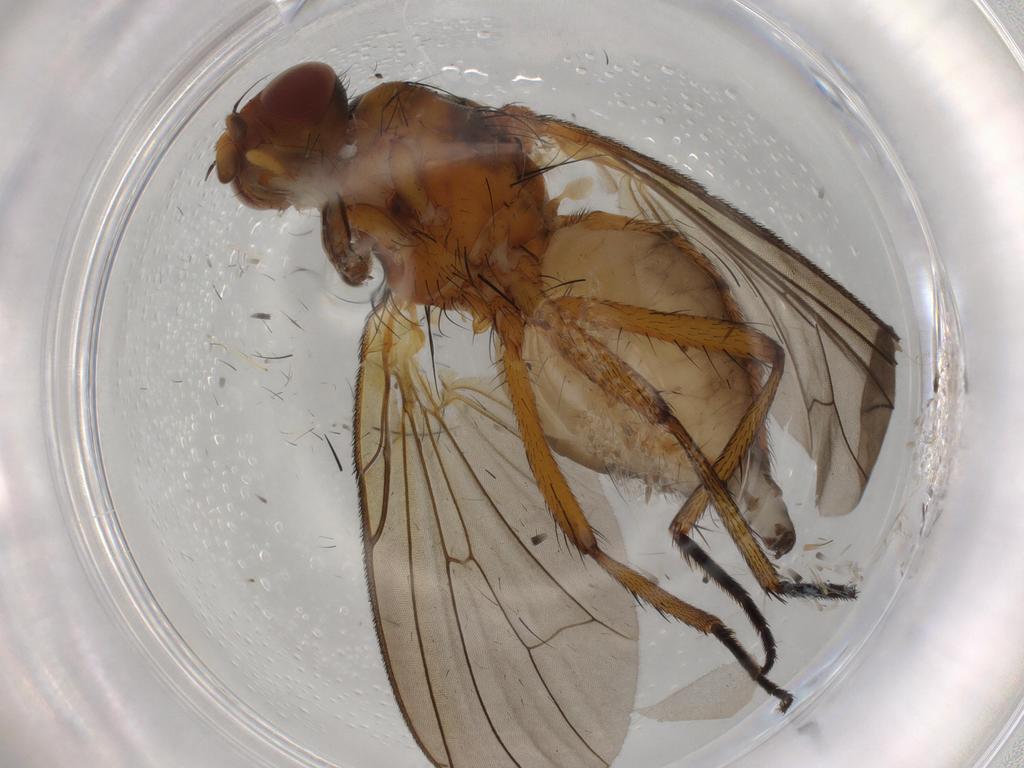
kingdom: Animalia
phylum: Arthropoda
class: Insecta
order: Diptera
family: Anthomyiidae
